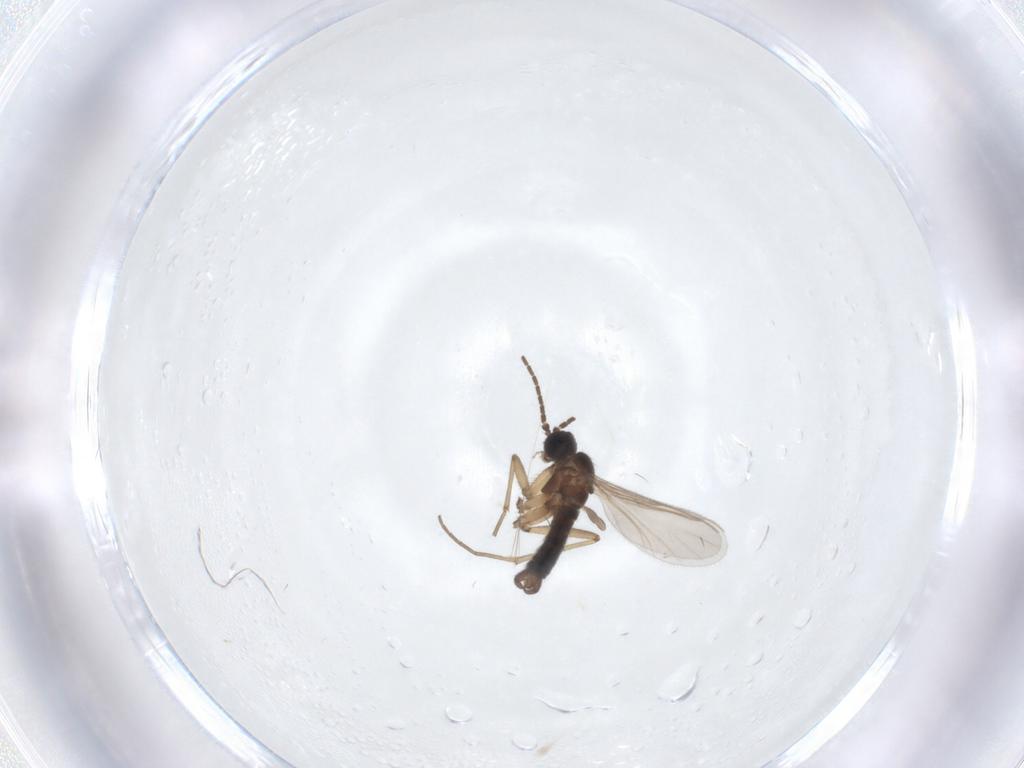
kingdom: Animalia
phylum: Arthropoda
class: Insecta
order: Diptera
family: Sciaridae
